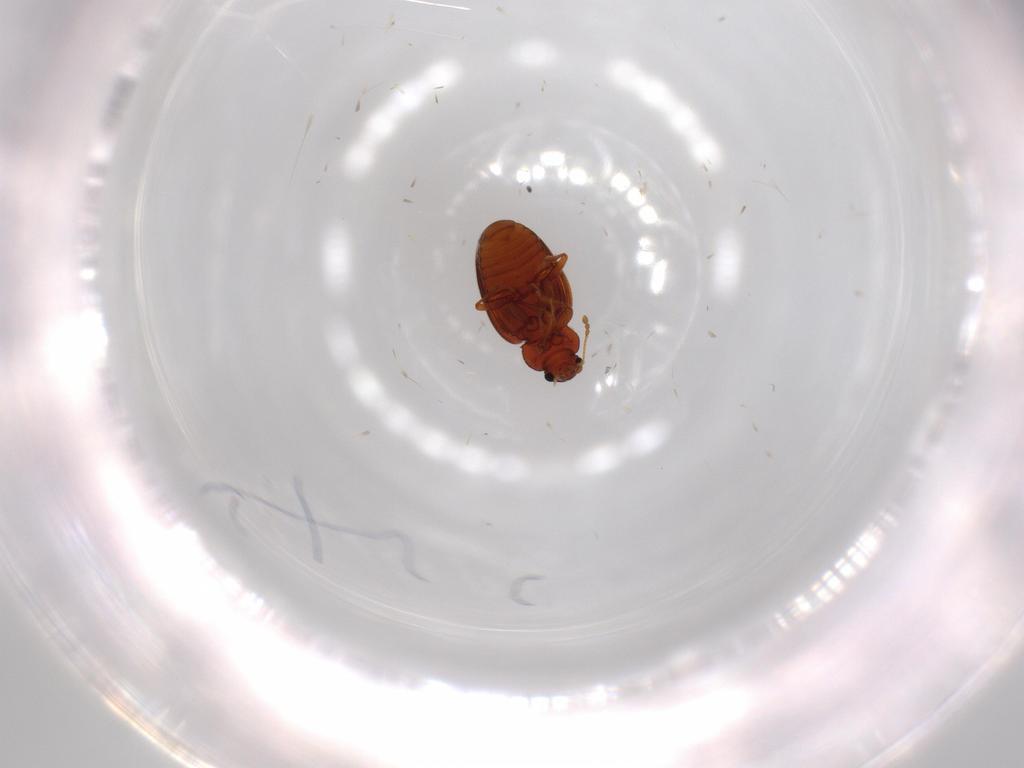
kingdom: Animalia
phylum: Arthropoda
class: Insecta
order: Coleoptera
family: Latridiidae
